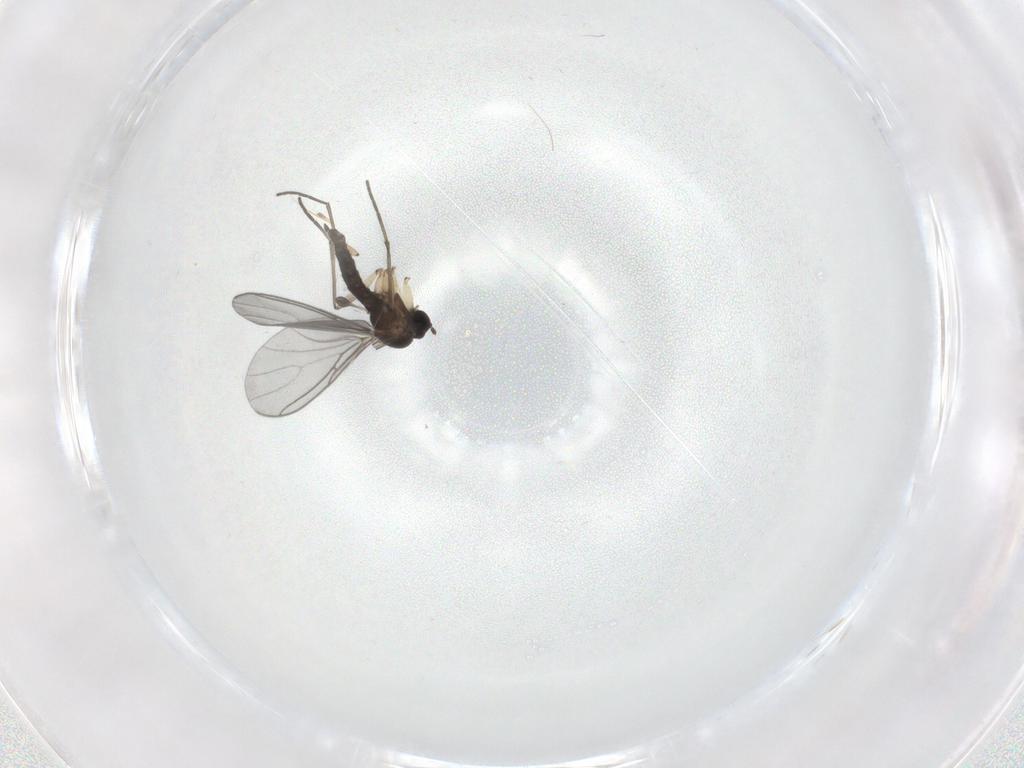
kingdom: Animalia
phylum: Arthropoda
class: Insecta
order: Diptera
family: Sciaridae
